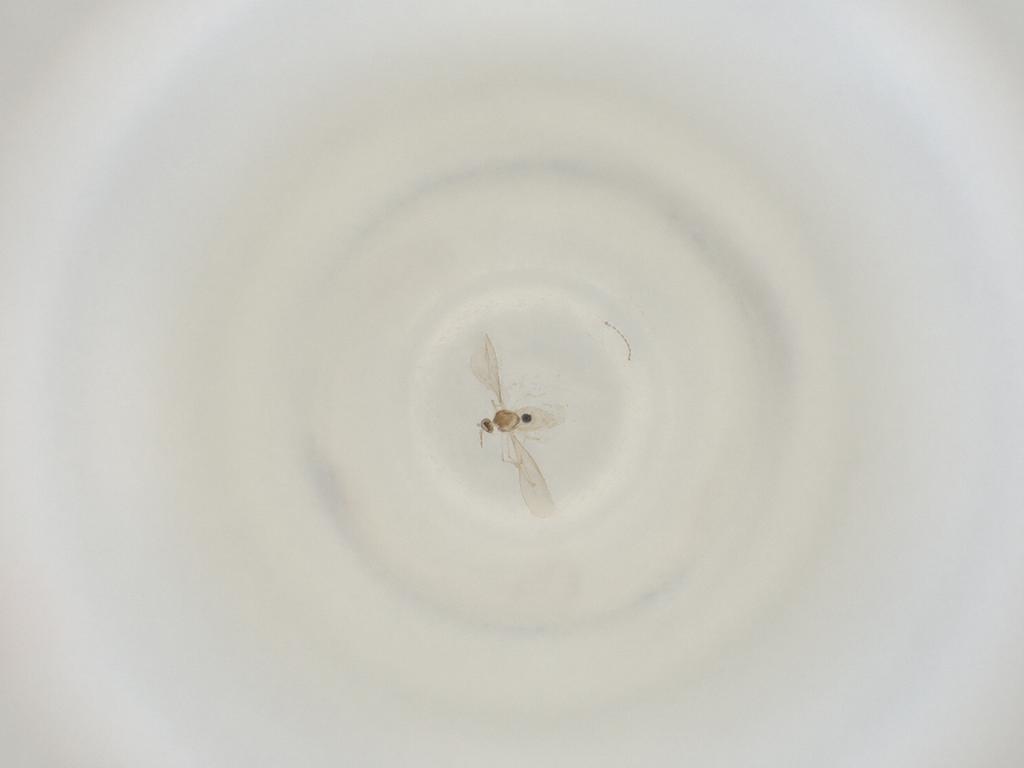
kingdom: Animalia
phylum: Arthropoda
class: Insecta
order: Diptera
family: Cecidomyiidae
